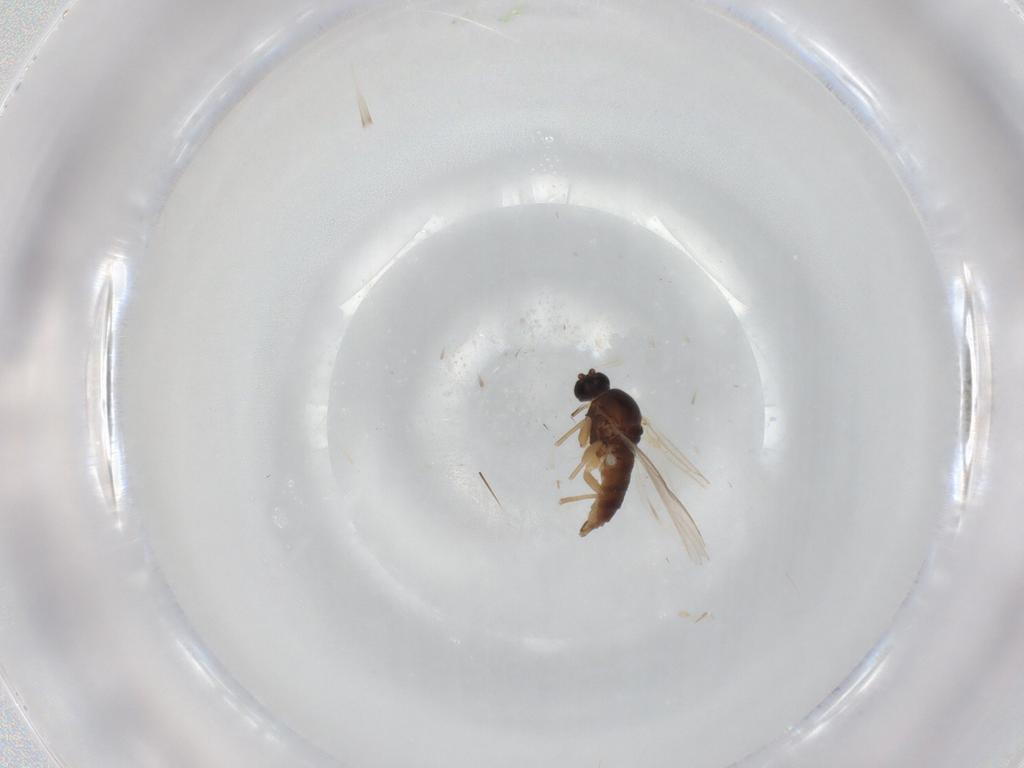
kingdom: Animalia
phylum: Arthropoda
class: Insecta
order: Diptera
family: Sciaridae
